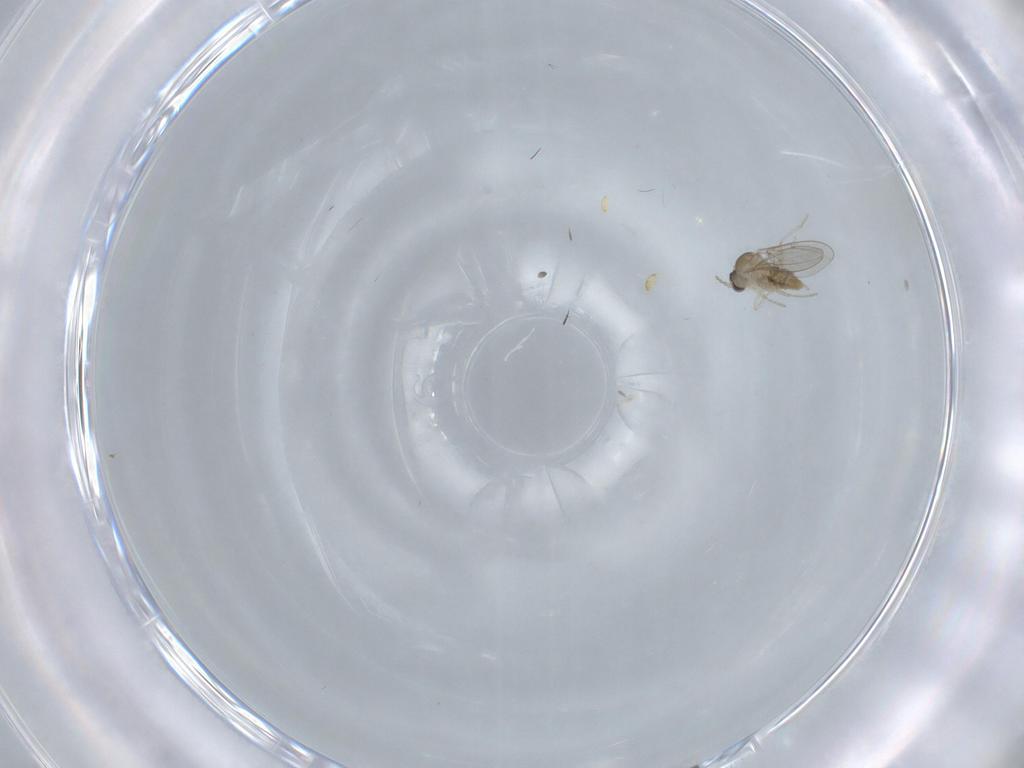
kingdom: Animalia
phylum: Arthropoda
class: Insecta
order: Diptera
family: Cecidomyiidae
